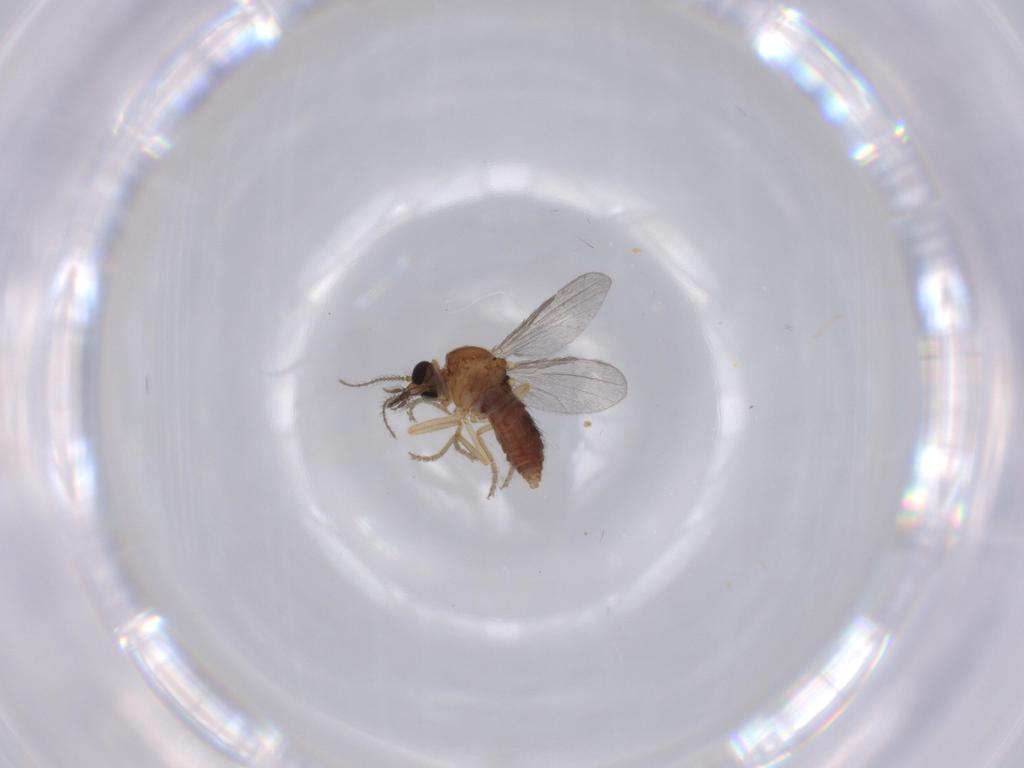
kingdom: Animalia
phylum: Arthropoda
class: Insecta
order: Diptera
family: Ceratopogonidae
